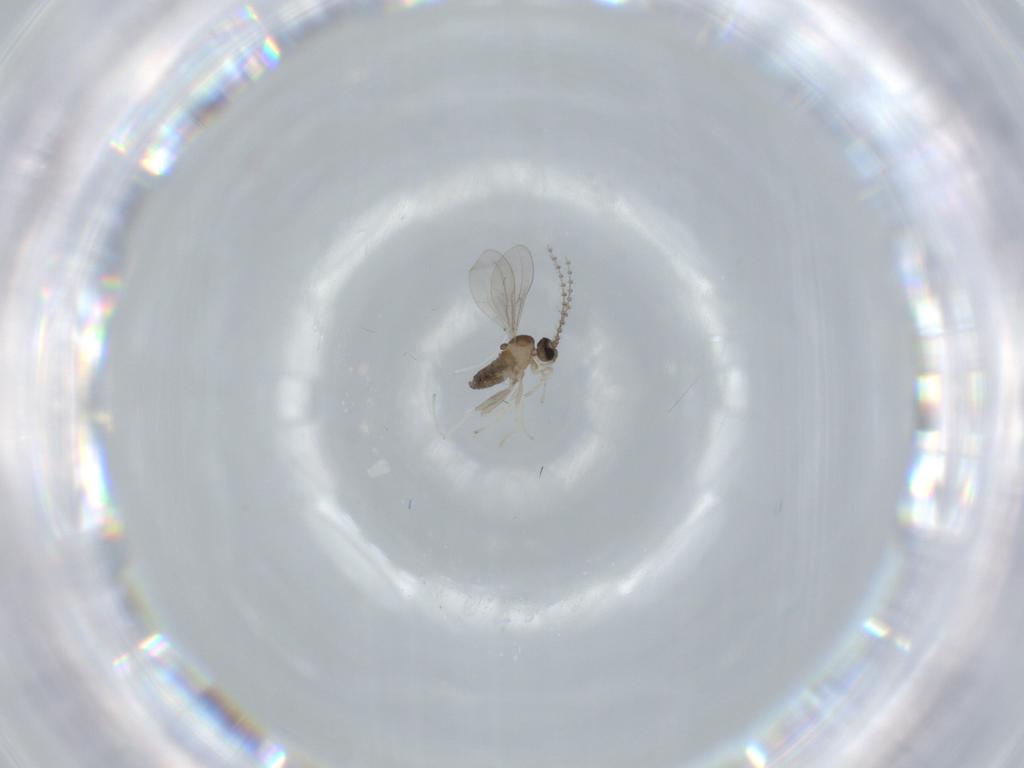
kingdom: Animalia
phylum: Arthropoda
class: Insecta
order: Diptera
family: Cecidomyiidae
